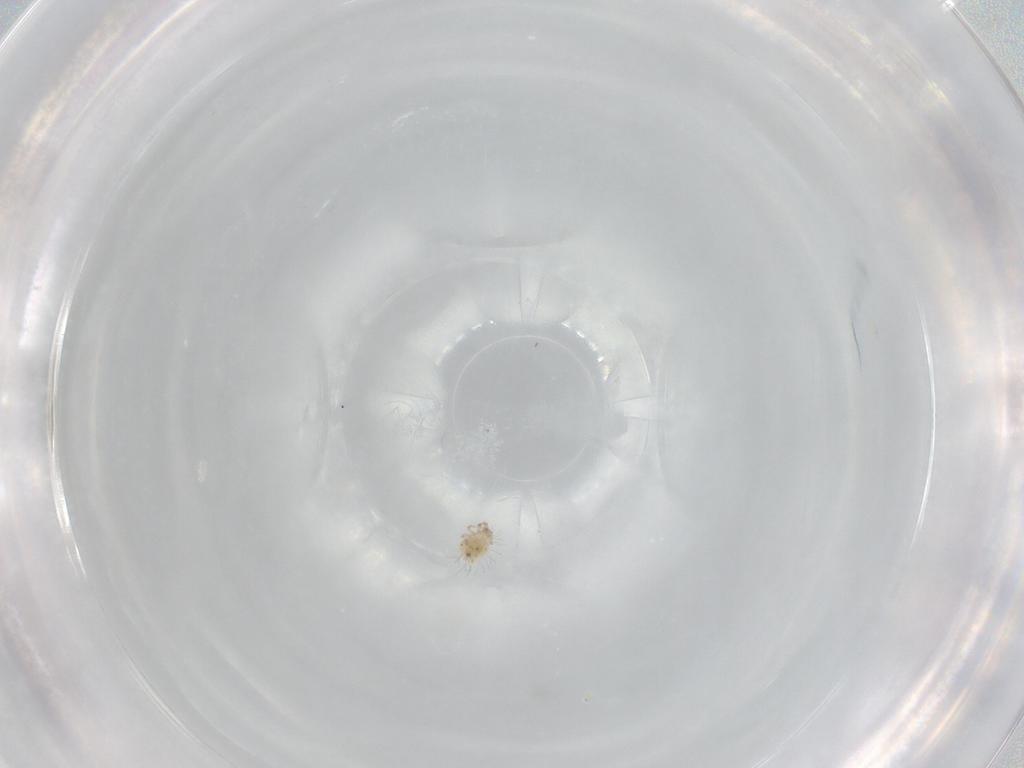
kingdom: Animalia
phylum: Arthropoda
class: Arachnida
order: Sarcoptiformes
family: Mochlozetidae
